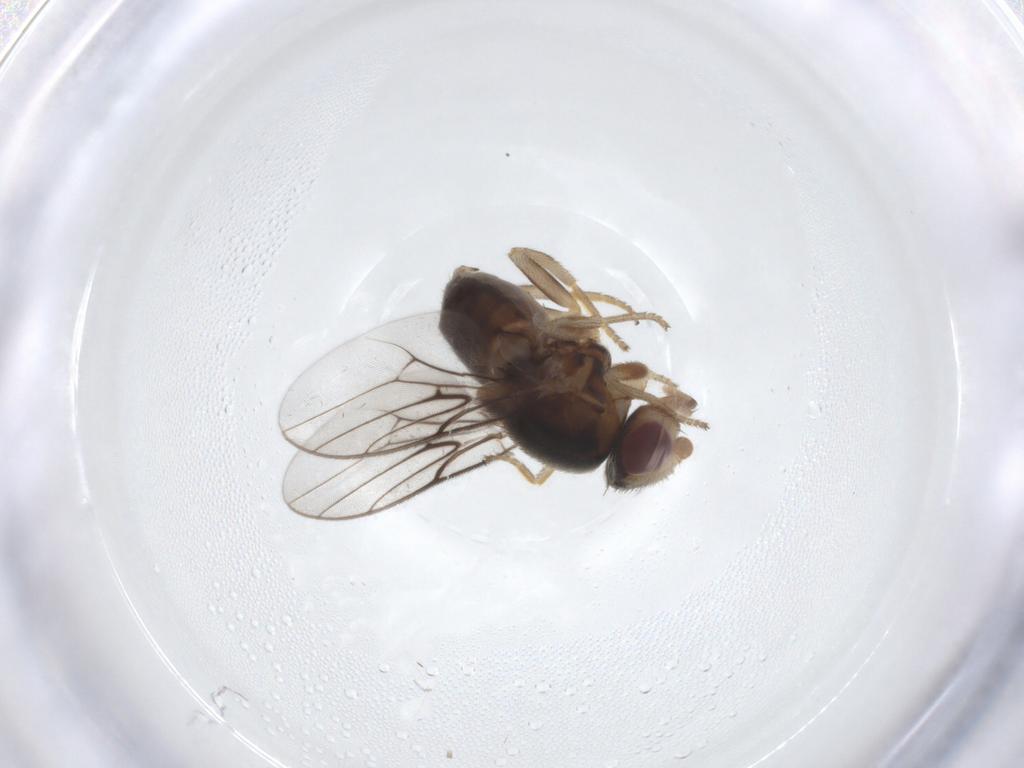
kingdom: Animalia
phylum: Arthropoda
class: Insecta
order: Diptera
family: Chloropidae
